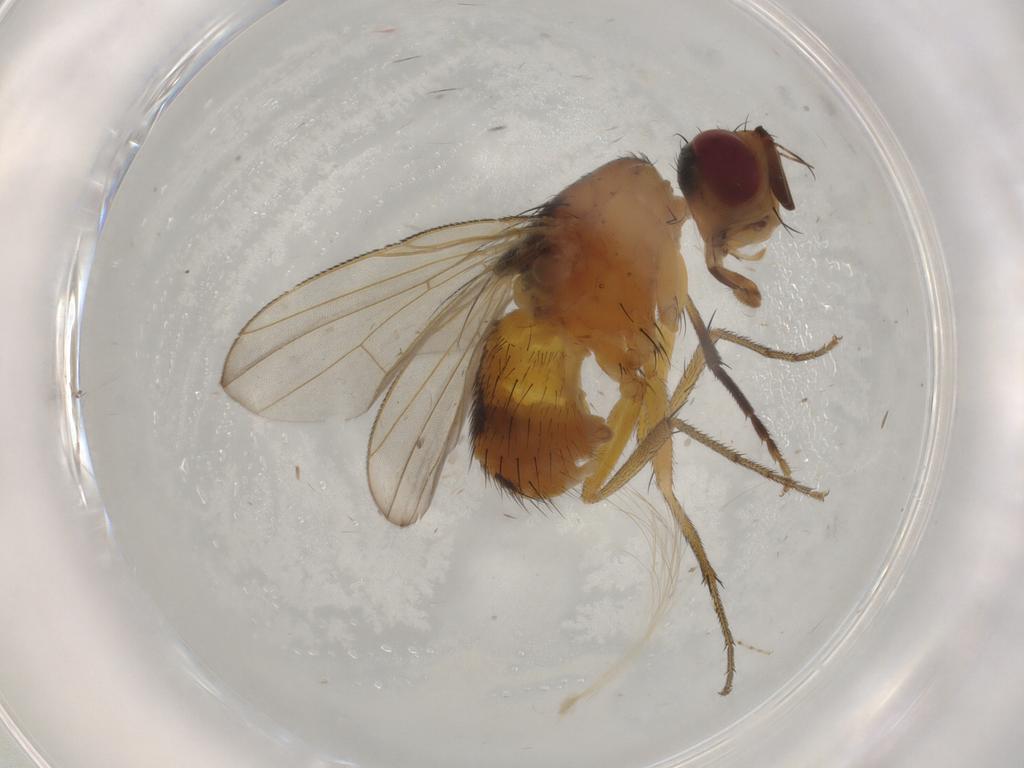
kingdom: Animalia
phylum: Arthropoda
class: Insecta
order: Diptera
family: Muscidae
